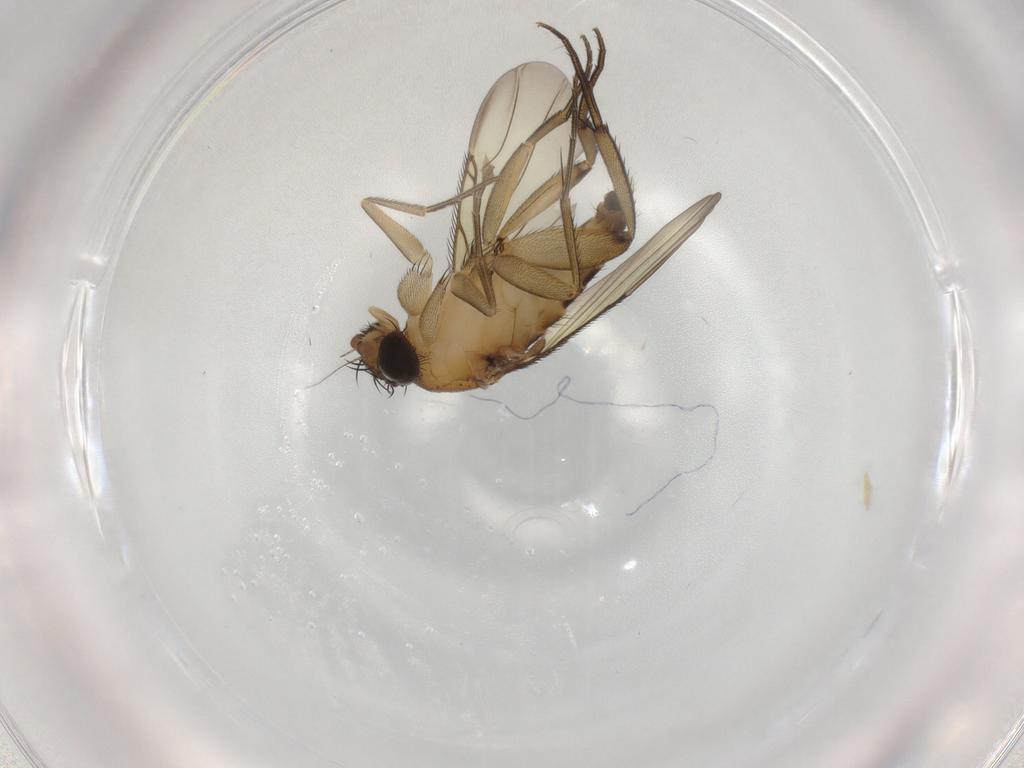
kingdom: Animalia
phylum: Arthropoda
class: Insecta
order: Diptera
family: Phoridae
